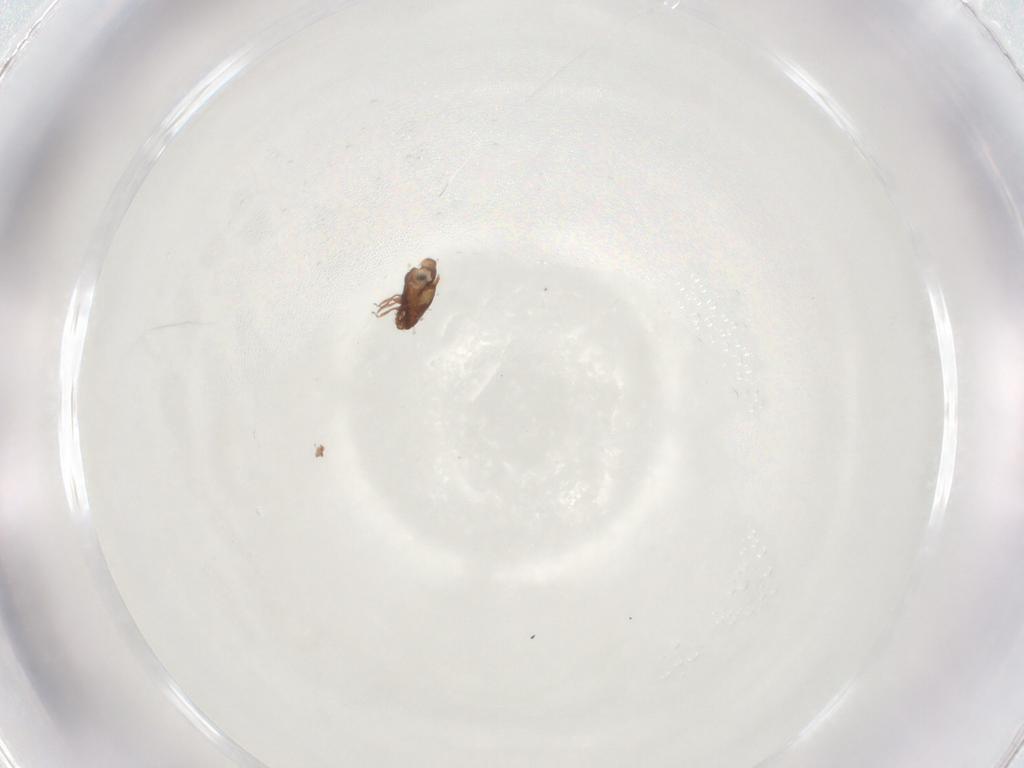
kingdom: Animalia
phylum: Arthropoda
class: Arachnida
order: Sarcoptiformes
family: Scheloribatidae
